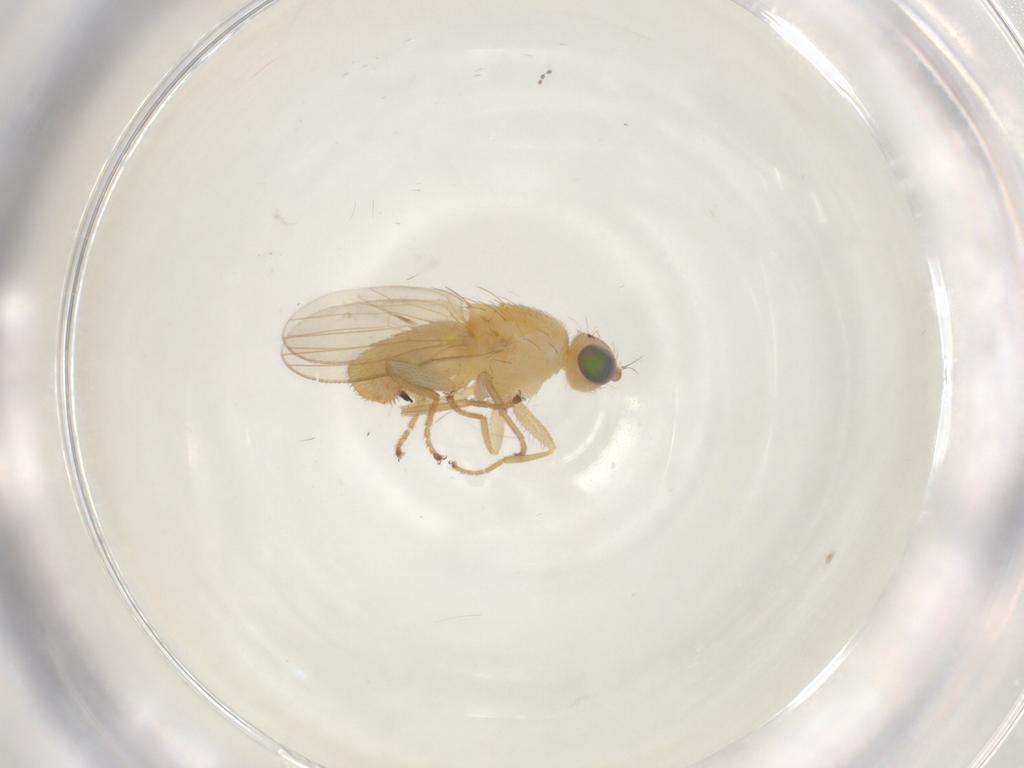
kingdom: Animalia
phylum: Arthropoda
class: Insecta
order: Diptera
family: Chyromyidae
